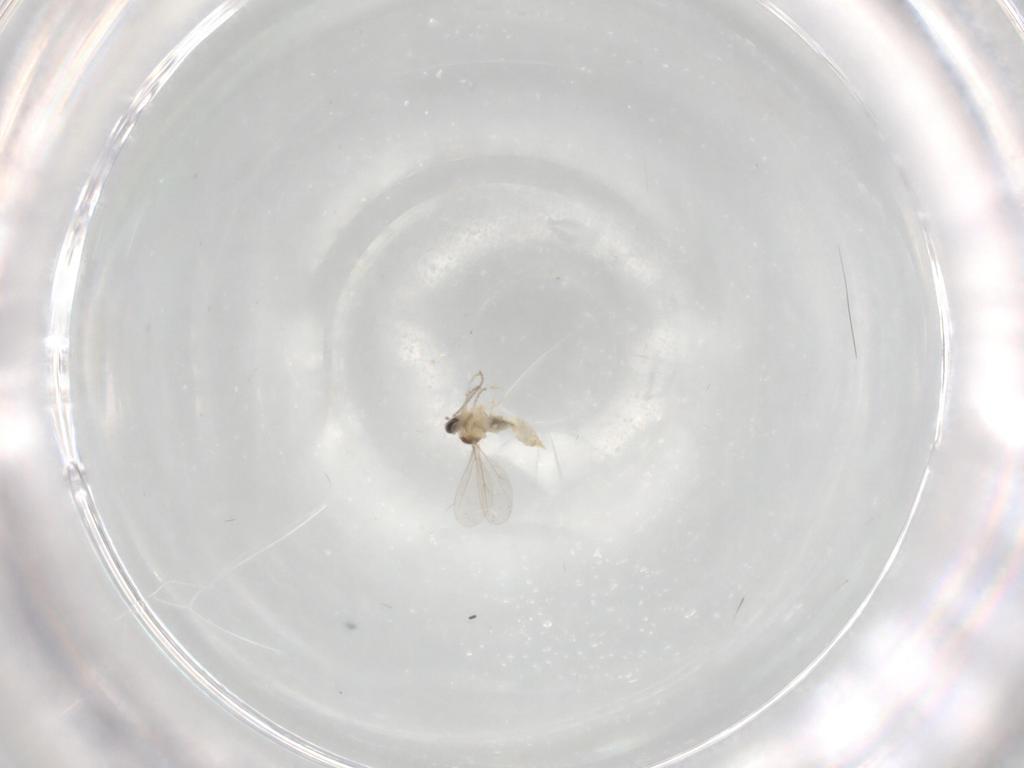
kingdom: Animalia
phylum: Arthropoda
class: Insecta
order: Diptera
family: Cecidomyiidae
